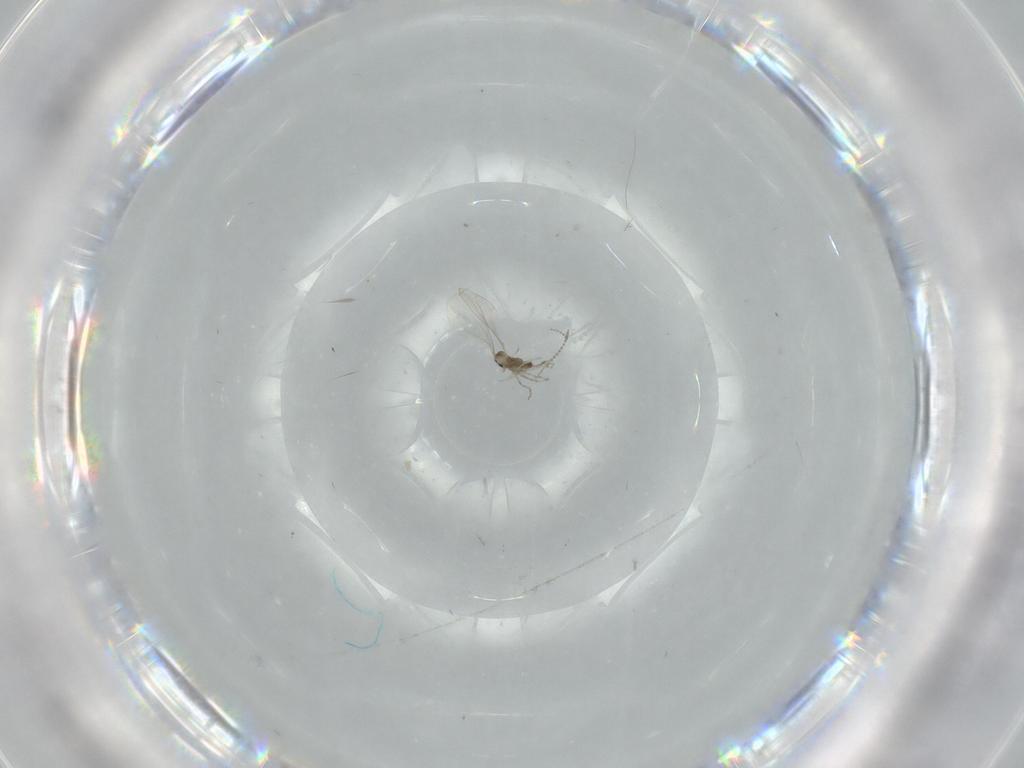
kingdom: Animalia
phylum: Arthropoda
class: Insecta
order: Diptera
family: Cecidomyiidae
